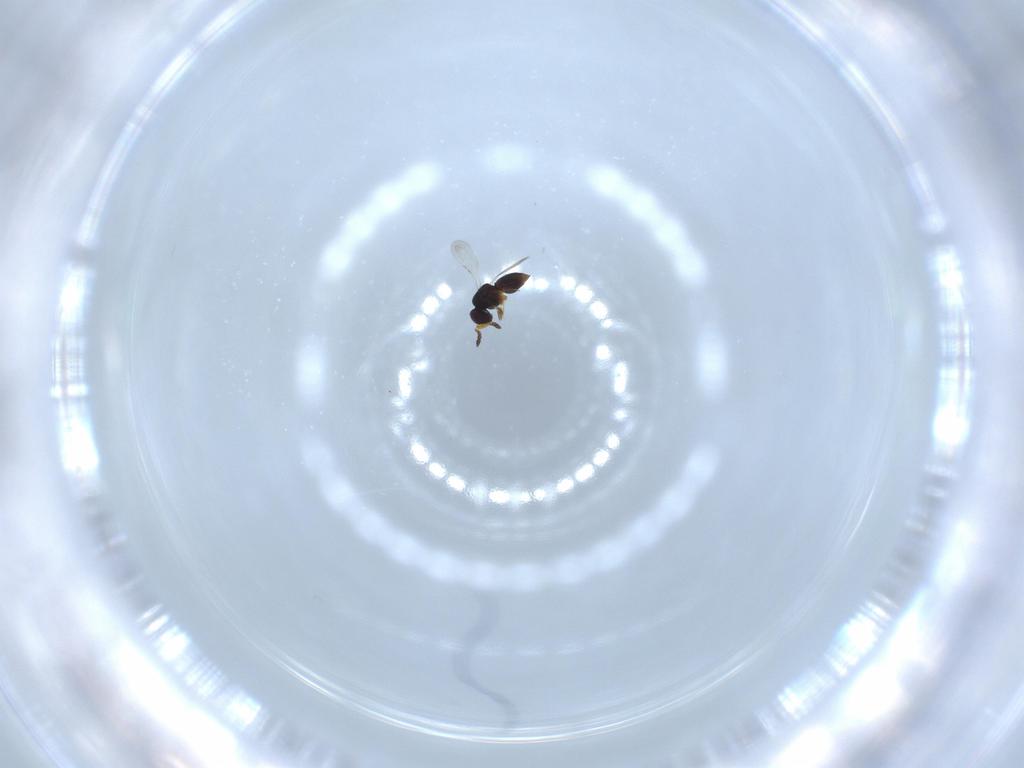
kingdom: Animalia
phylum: Arthropoda
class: Insecta
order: Hymenoptera
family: Ceraphronidae
